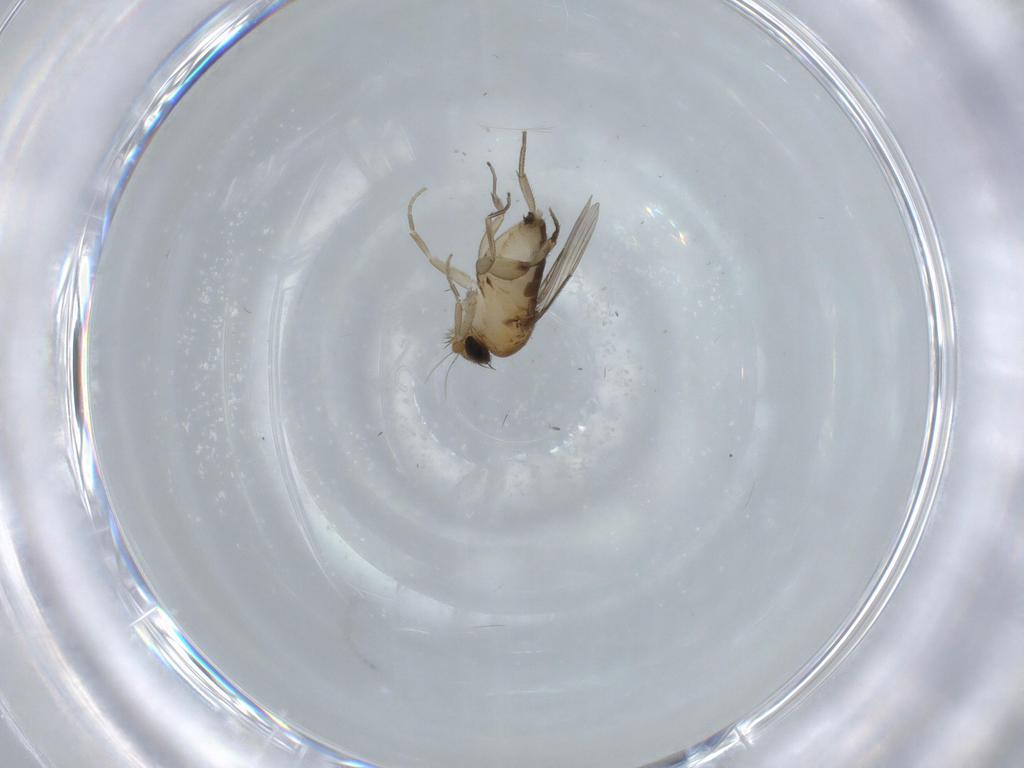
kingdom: Animalia
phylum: Arthropoda
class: Insecta
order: Diptera
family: Phoridae
